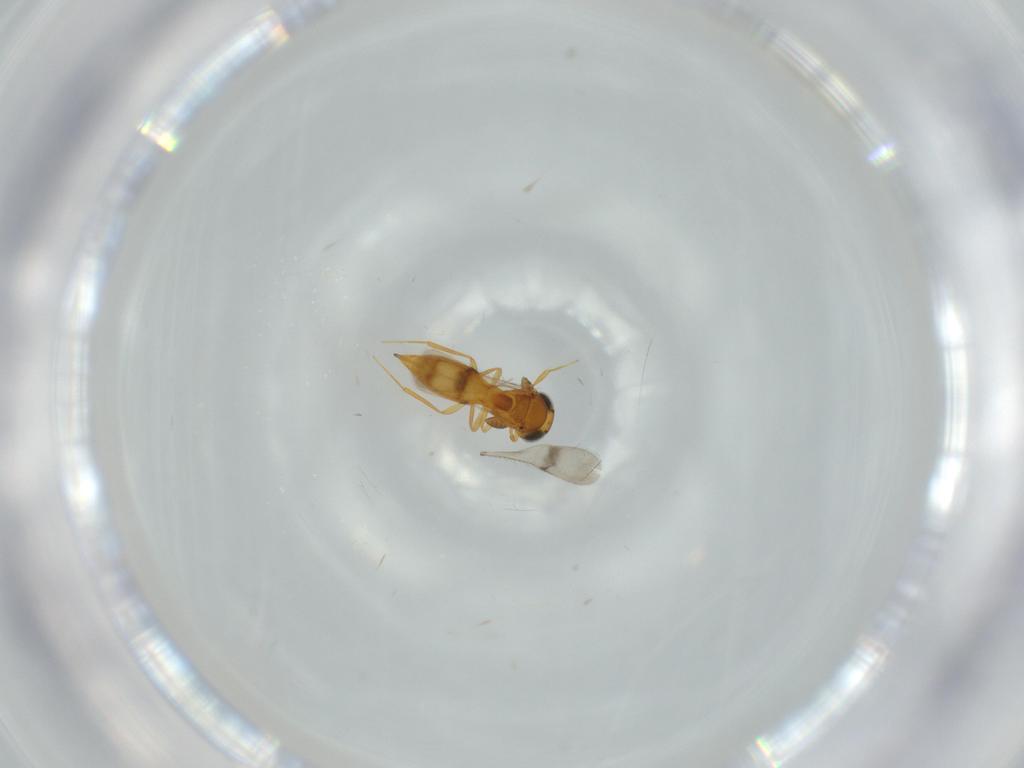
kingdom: Animalia
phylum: Arthropoda
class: Insecta
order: Hymenoptera
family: Scelionidae
